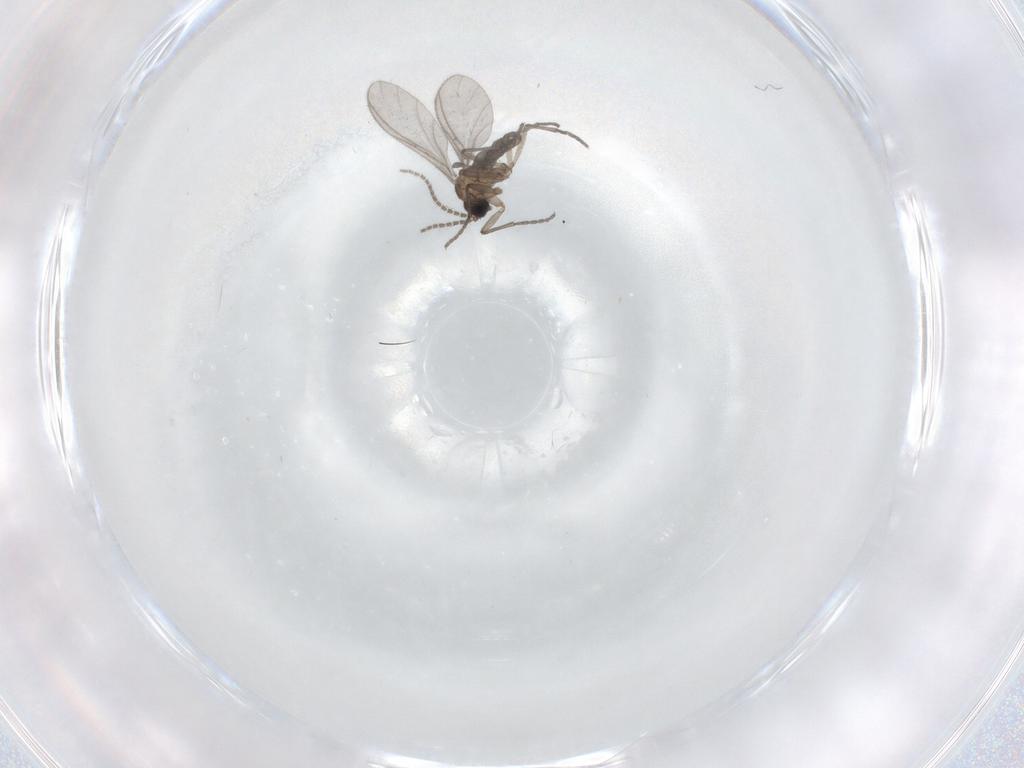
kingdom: Animalia
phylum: Arthropoda
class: Insecta
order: Diptera
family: Sciaridae
